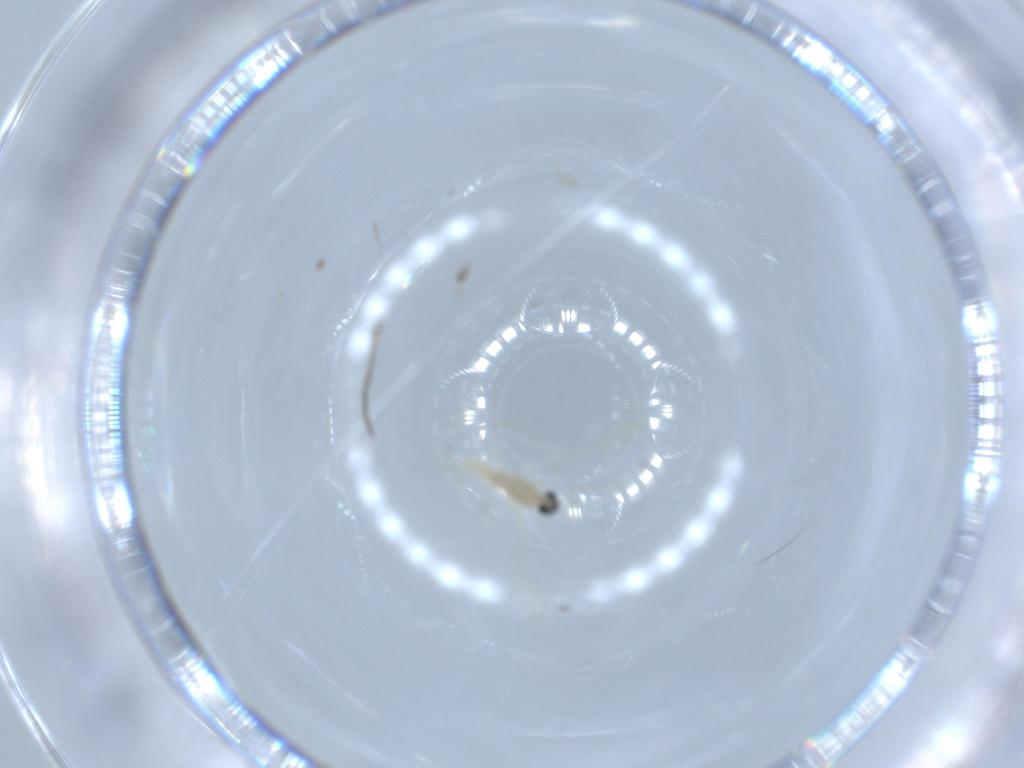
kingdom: Animalia
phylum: Arthropoda
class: Insecta
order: Diptera
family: Sciaridae
